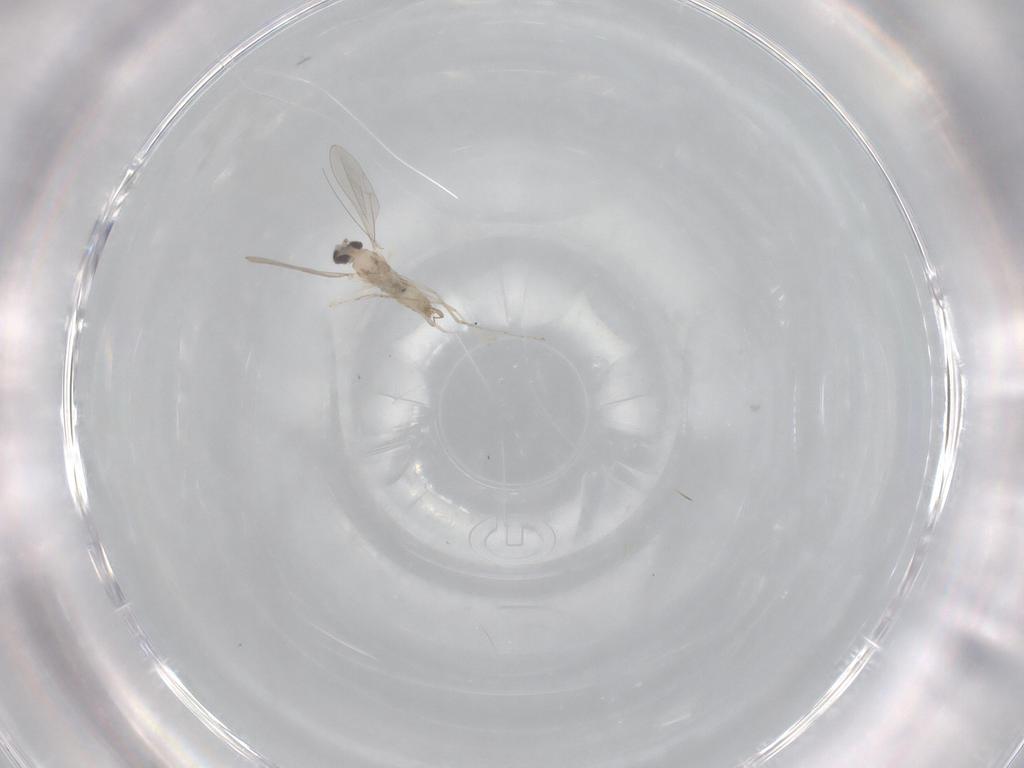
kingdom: Animalia
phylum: Arthropoda
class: Insecta
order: Diptera
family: Cecidomyiidae
